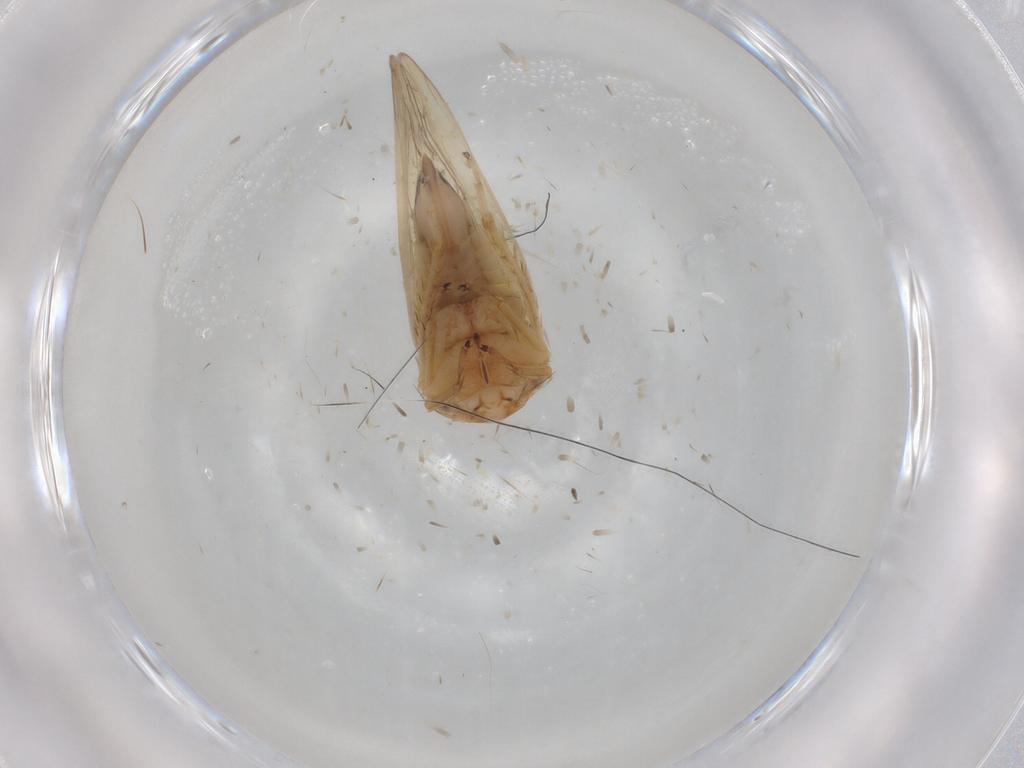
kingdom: Animalia
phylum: Arthropoda
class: Insecta
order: Hemiptera
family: Cicadellidae
